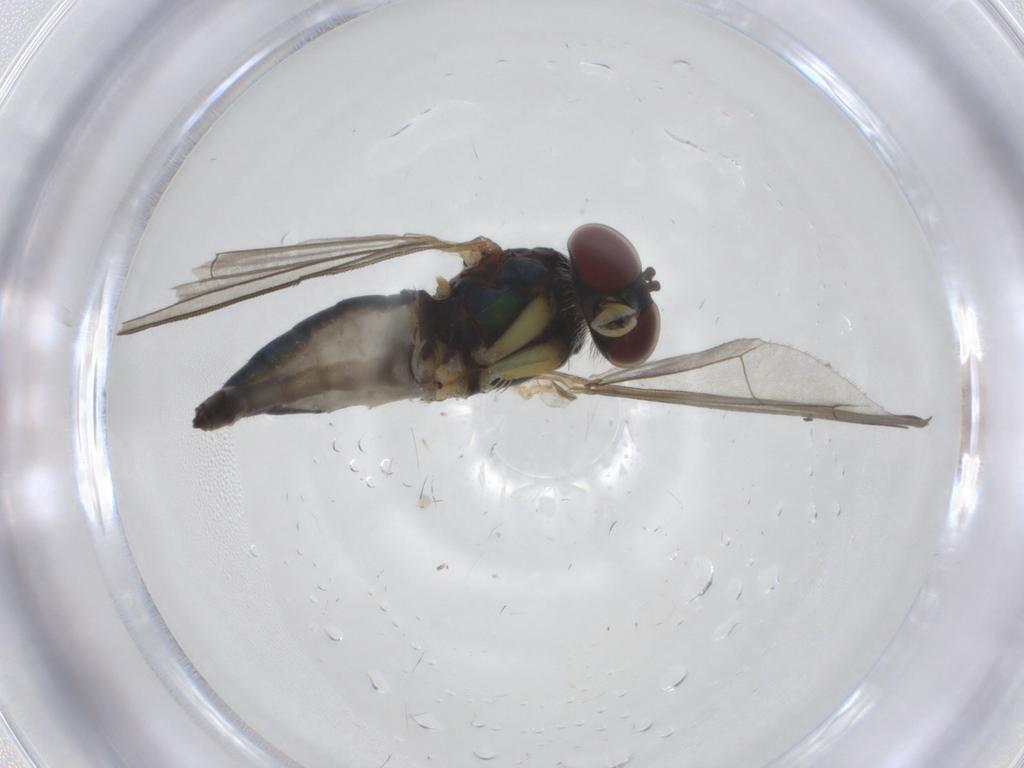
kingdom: Animalia
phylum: Arthropoda
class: Insecta
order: Diptera
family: Dolichopodidae
